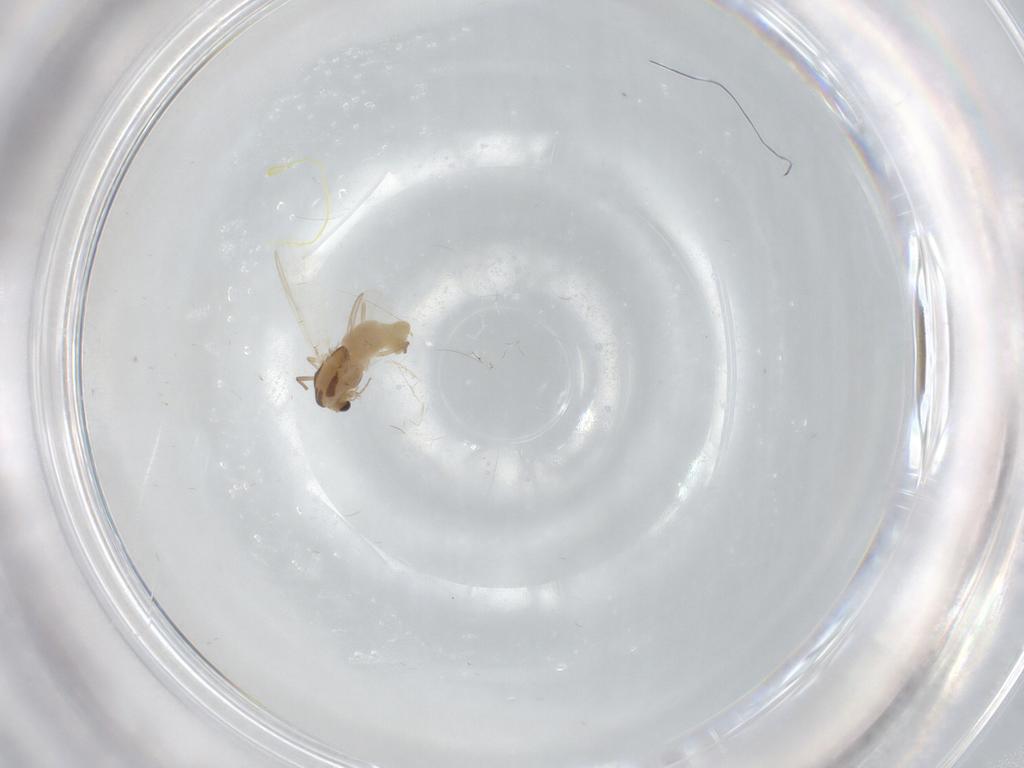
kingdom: Animalia
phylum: Arthropoda
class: Insecta
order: Diptera
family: Chironomidae
